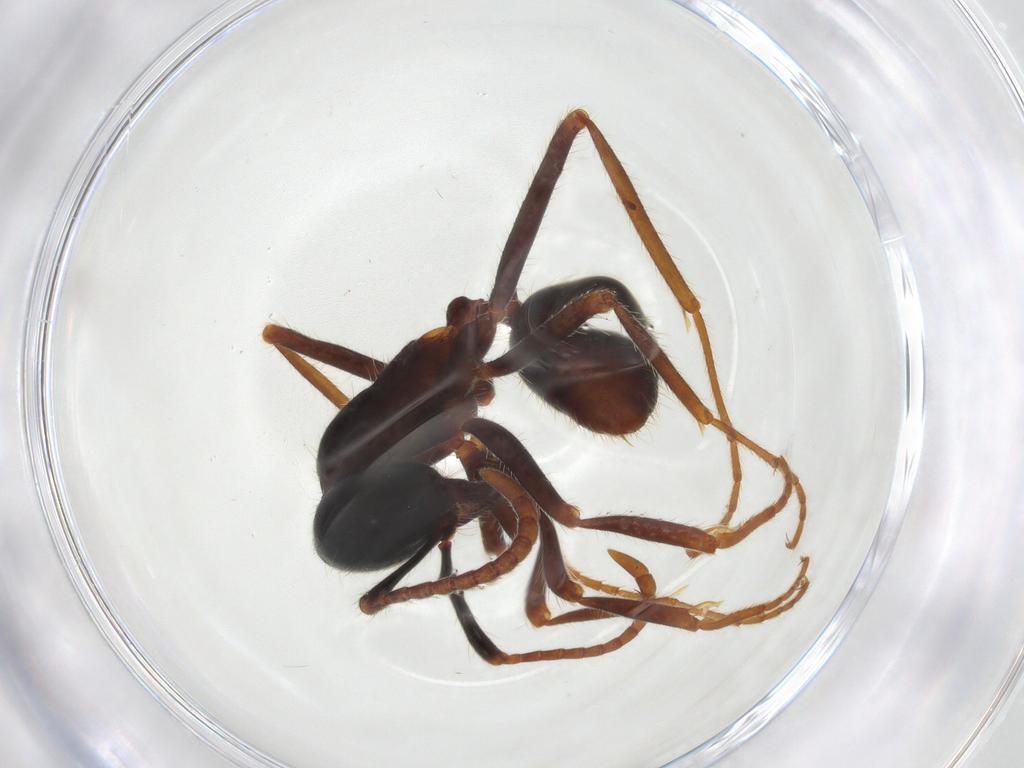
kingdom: Animalia
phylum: Arthropoda
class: Insecta
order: Hymenoptera
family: Formicidae
